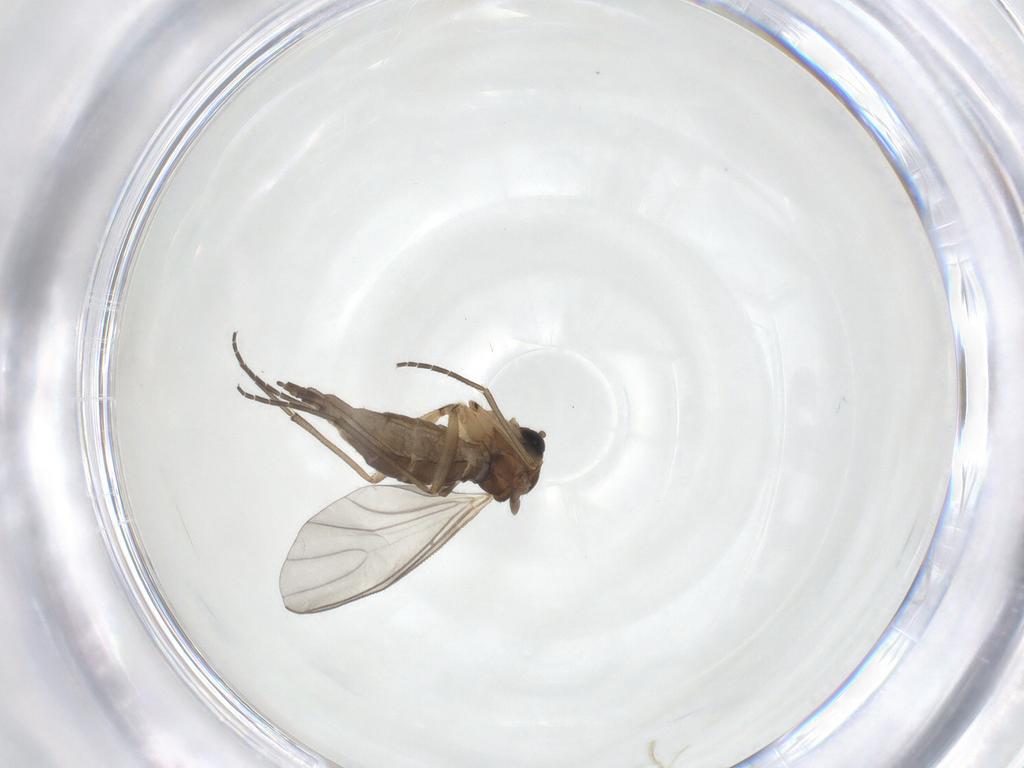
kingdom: Animalia
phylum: Arthropoda
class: Insecta
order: Diptera
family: Sciaridae
